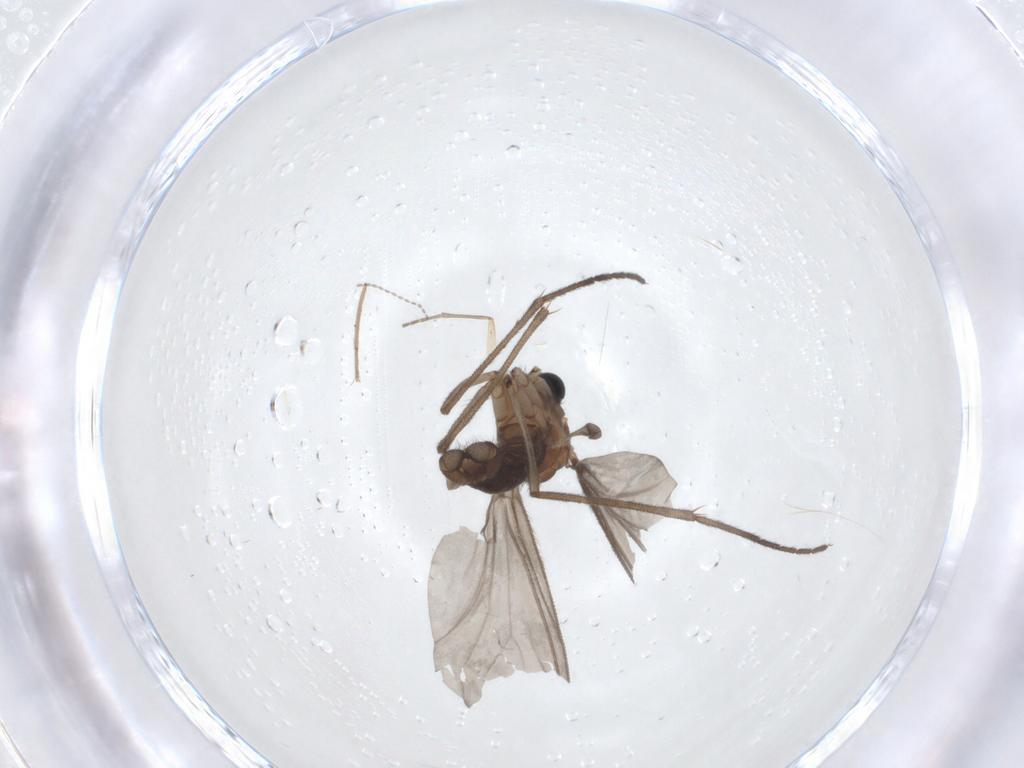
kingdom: Animalia
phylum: Arthropoda
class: Insecta
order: Diptera
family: Sciaridae
